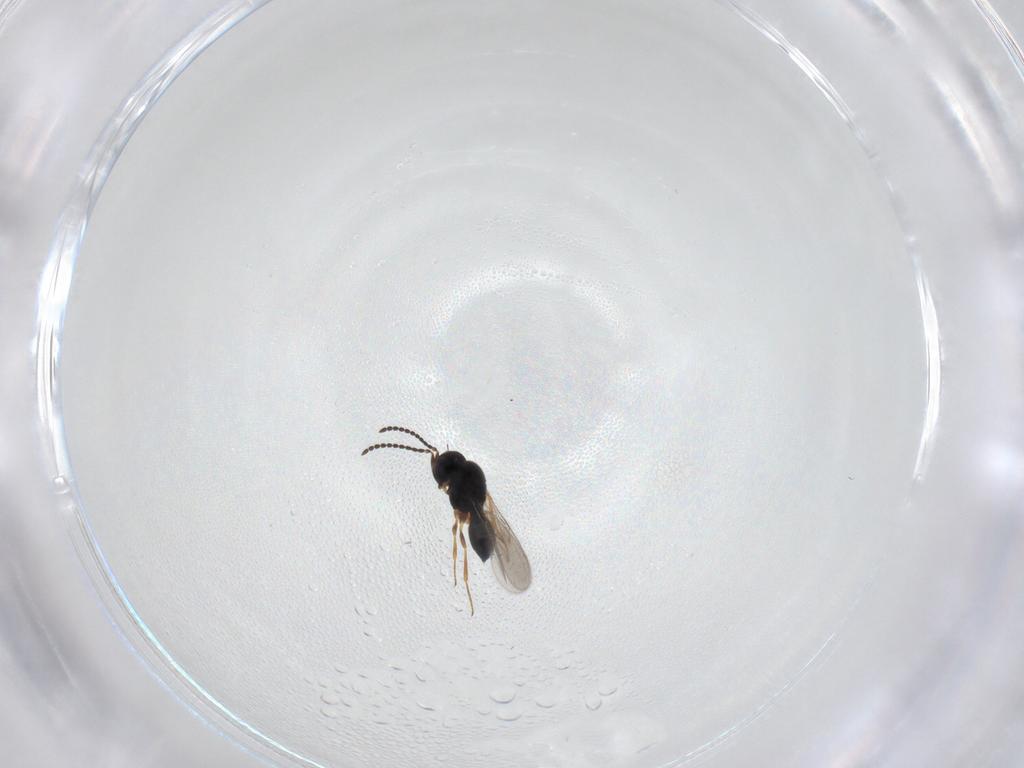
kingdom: Animalia
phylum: Arthropoda
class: Insecta
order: Hymenoptera
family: Scelionidae
